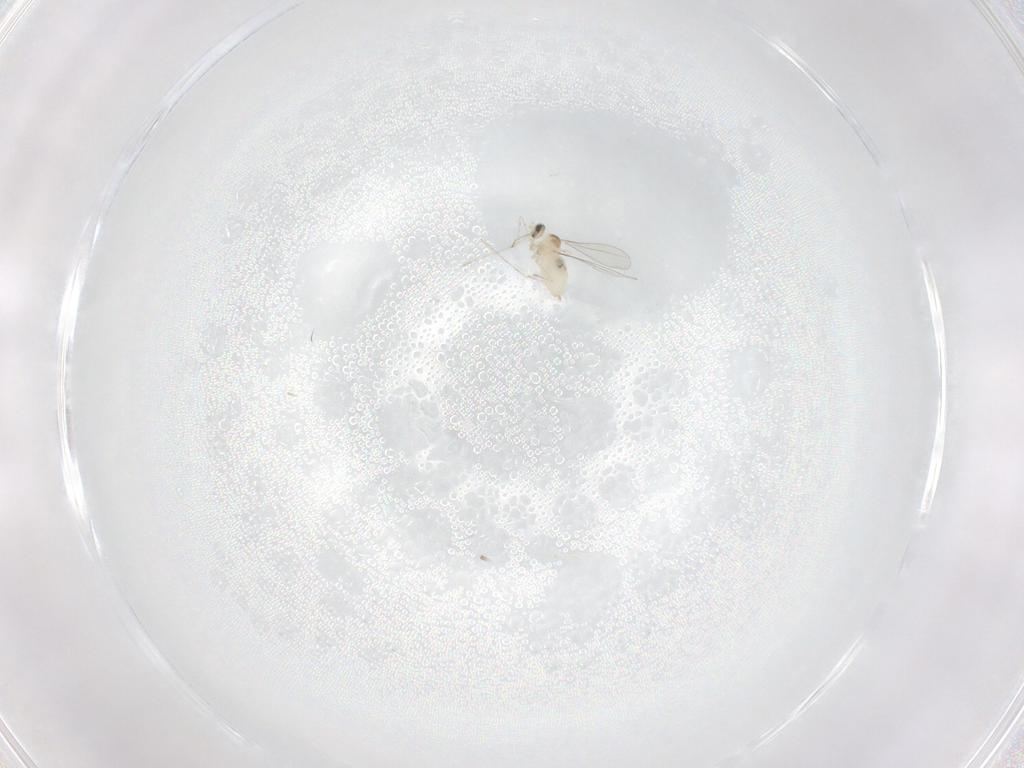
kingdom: Animalia
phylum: Arthropoda
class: Insecta
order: Diptera
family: Cecidomyiidae
